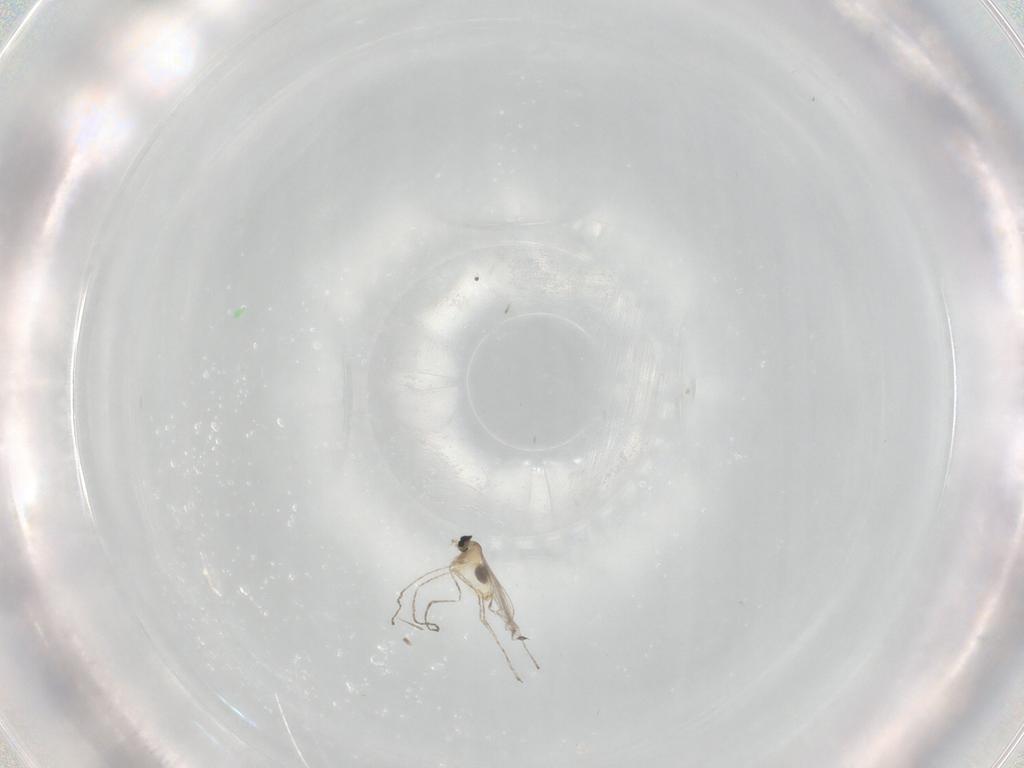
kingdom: Animalia
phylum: Arthropoda
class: Insecta
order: Diptera
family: Cecidomyiidae
